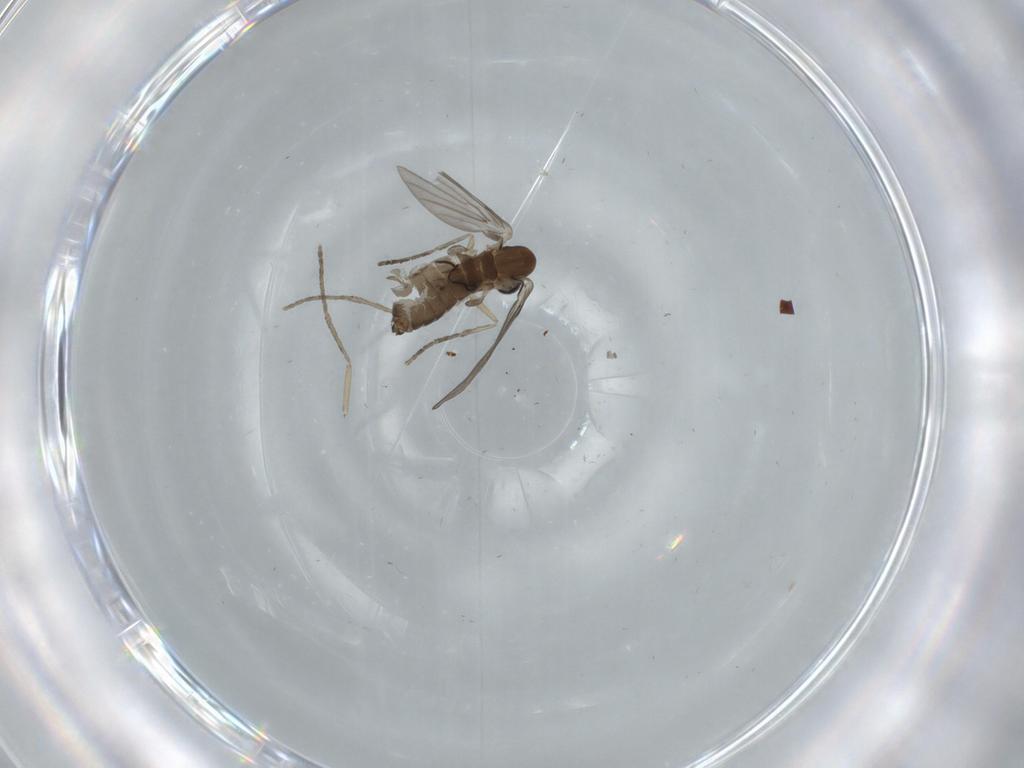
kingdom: Animalia
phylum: Arthropoda
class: Insecta
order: Diptera
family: Psychodidae
